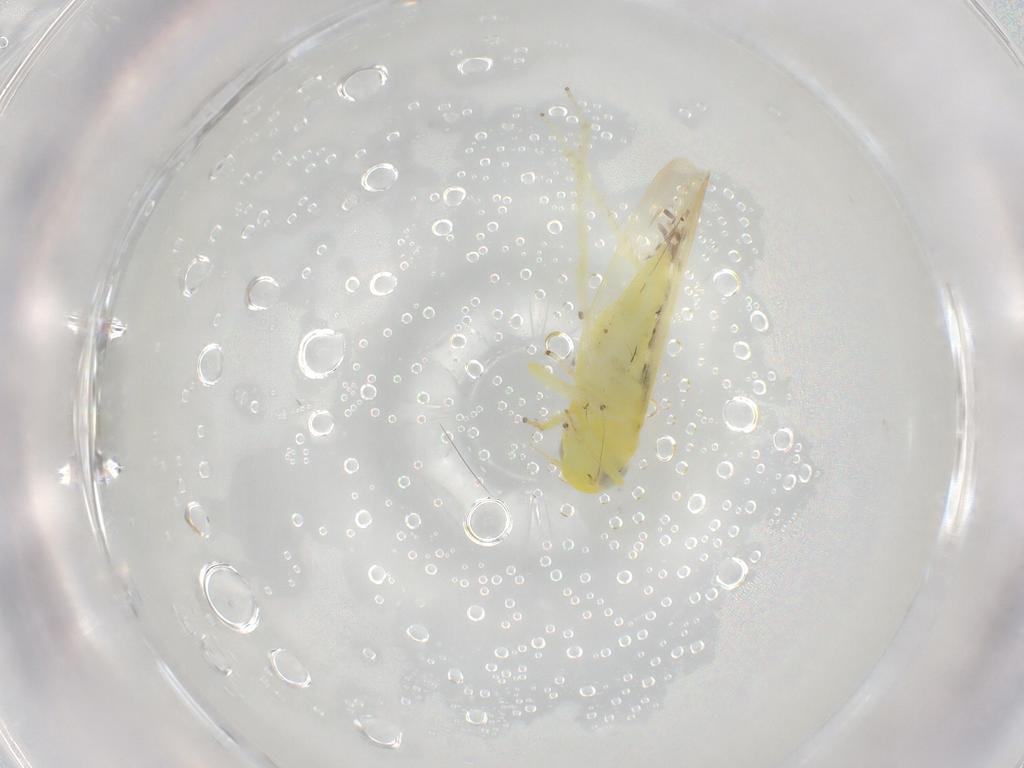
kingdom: Animalia
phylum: Arthropoda
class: Insecta
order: Hemiptera
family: Cicadellidae
